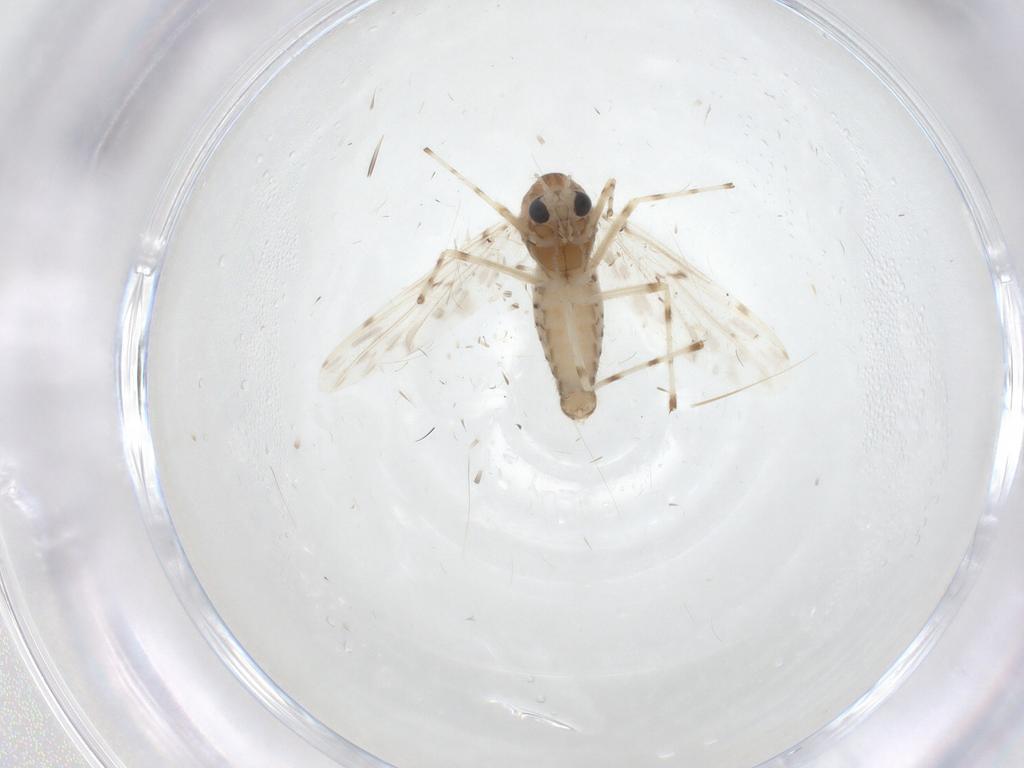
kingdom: Animalia
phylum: Arthropoda
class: Insecta
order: Diptera
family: Chironomidae
